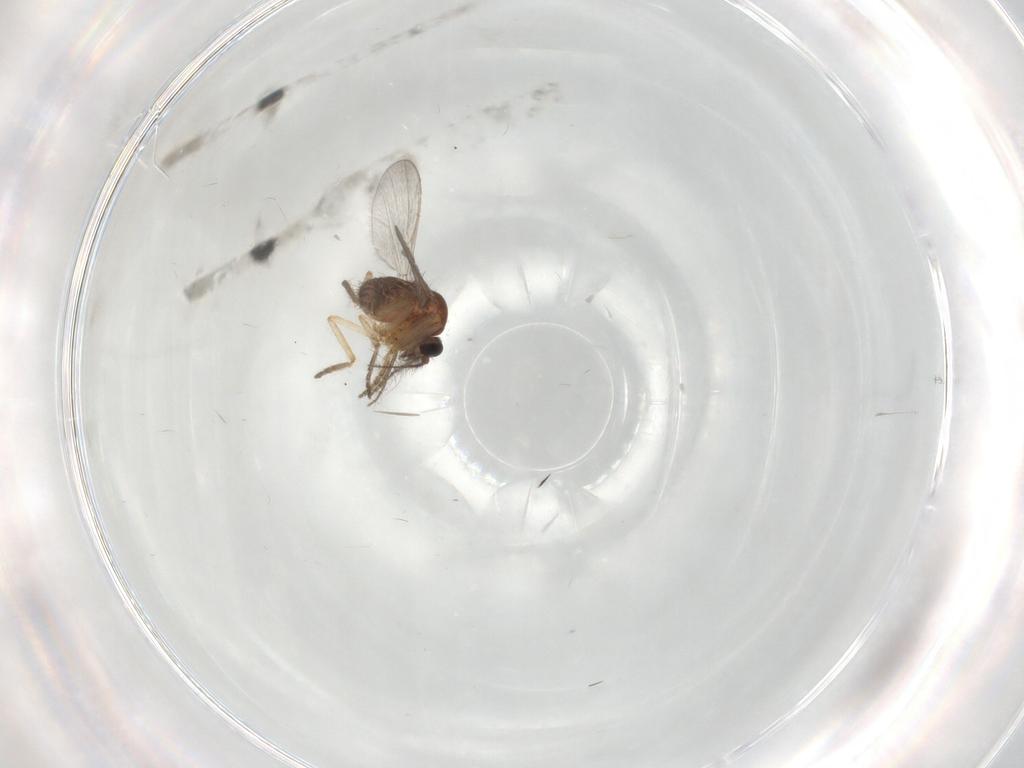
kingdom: Animalia
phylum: Arthropoda
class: Insecta
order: Diptera
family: Ceratopogonidae
